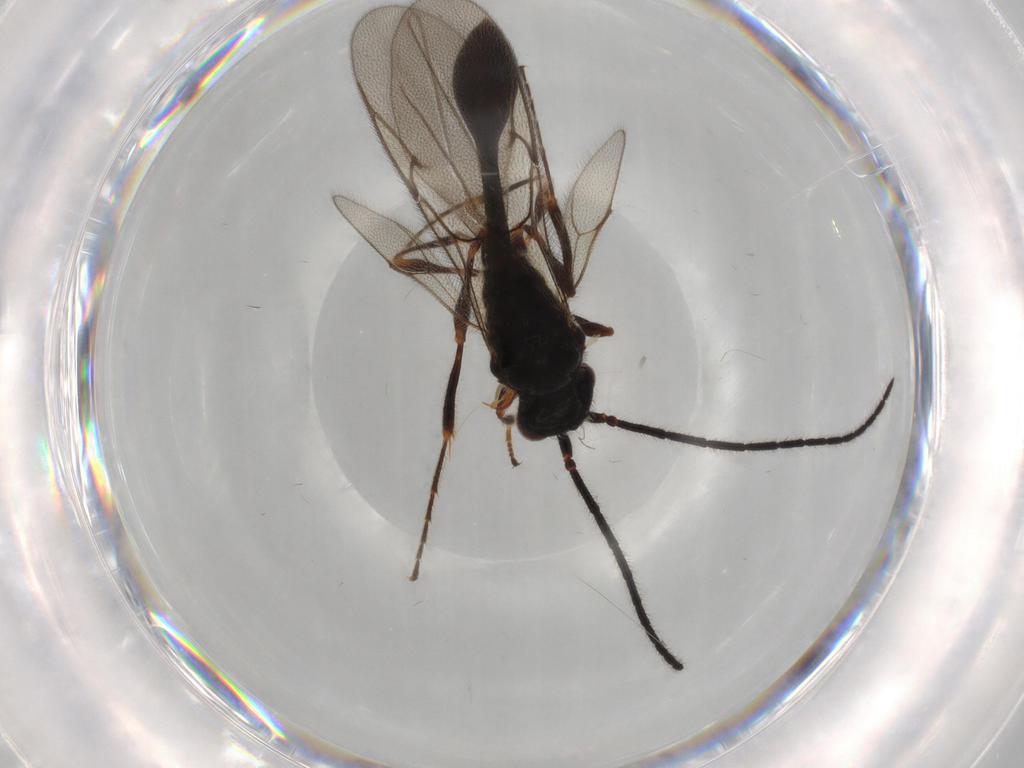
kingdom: Animalia
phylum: Arthropoda
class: Insecta
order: Hymenoptera
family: Diapriidae
